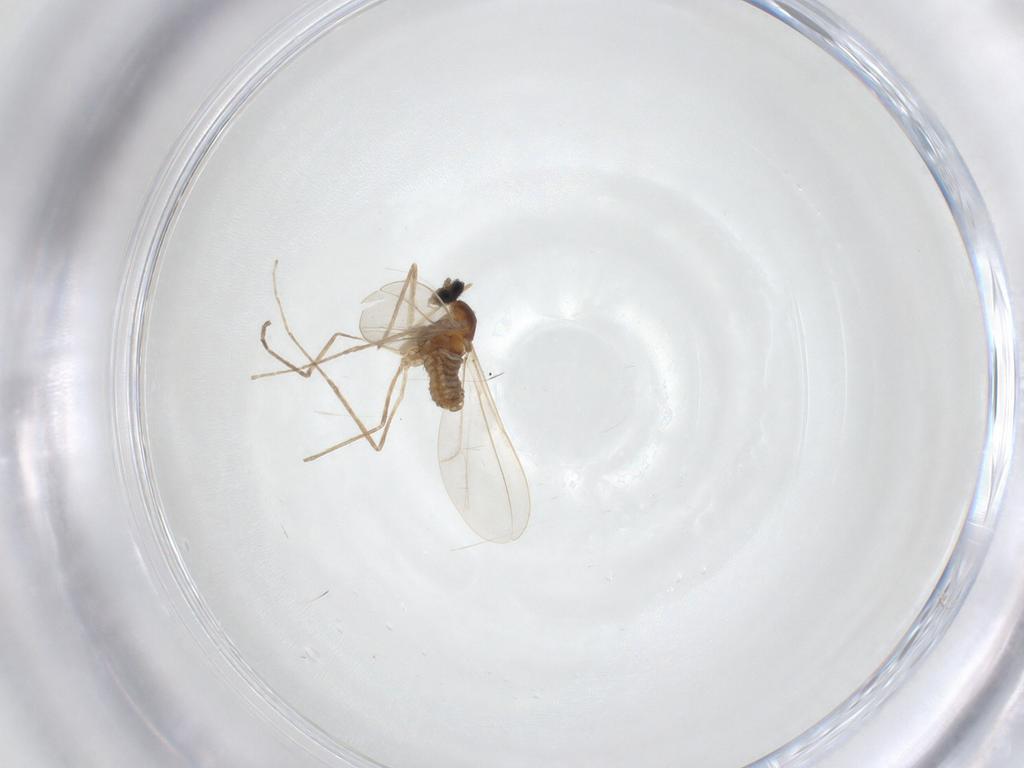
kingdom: Animalia
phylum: Arthropoda
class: Insecta
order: Diptera
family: Cecidomyiidae
